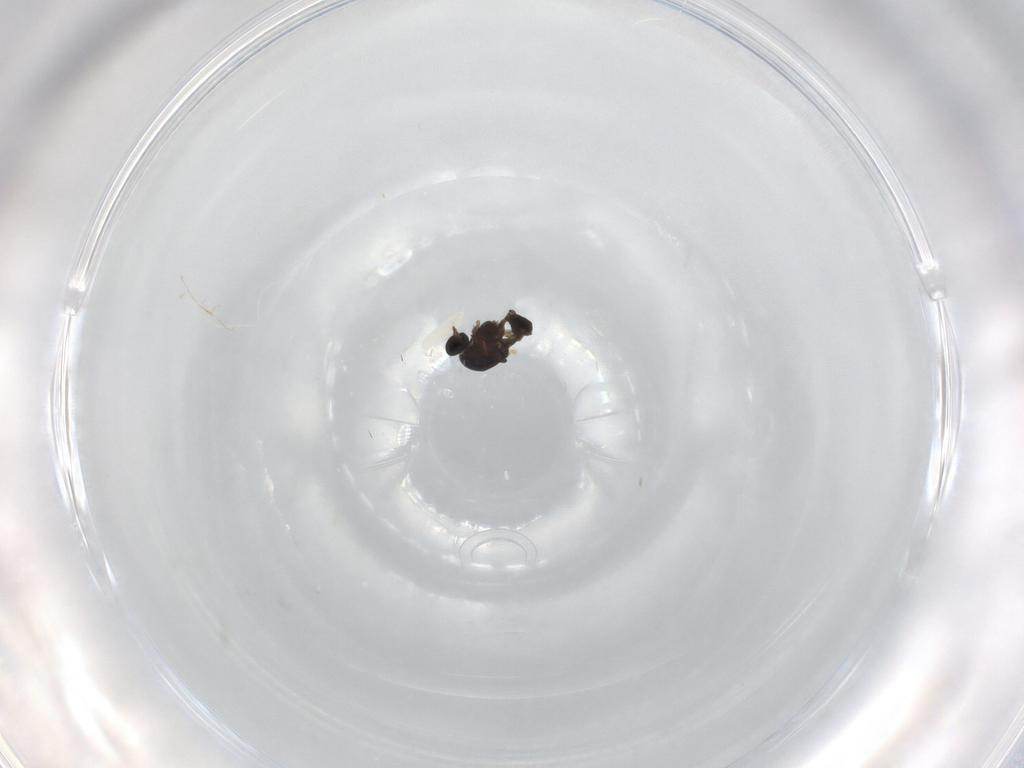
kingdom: Animalia
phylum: Arthropoda
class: Insecta
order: Diptera
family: Ceratopogonidae
